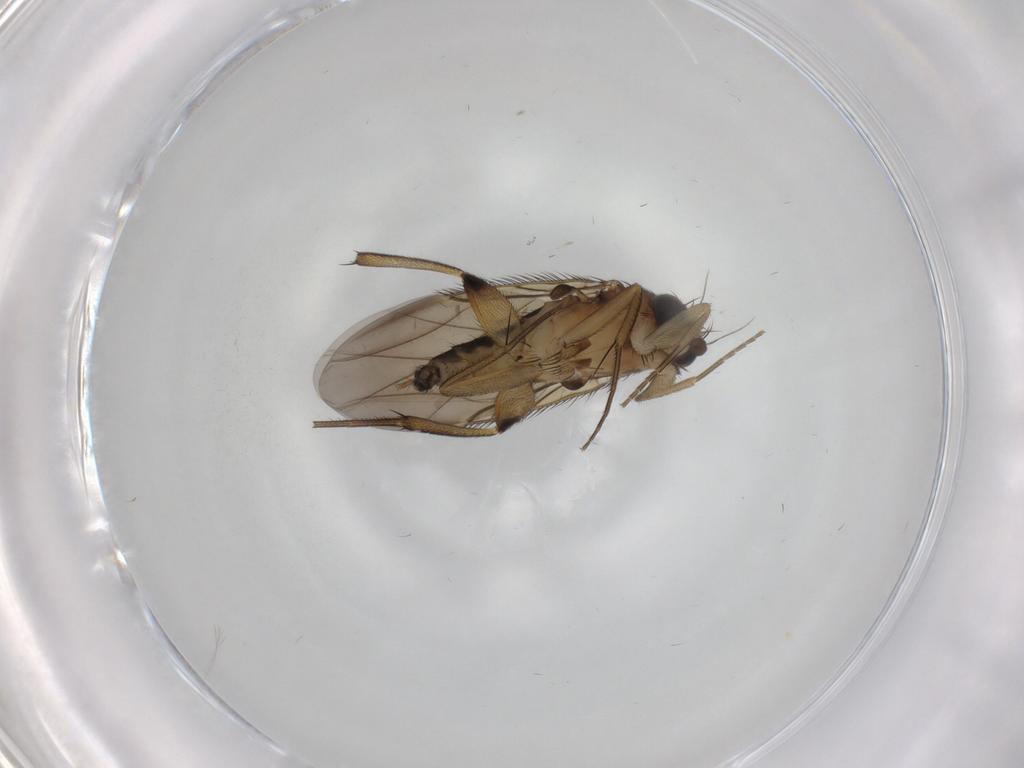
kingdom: Animalia
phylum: Arthropoda
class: Insecta
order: Diptera
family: Phoridae
